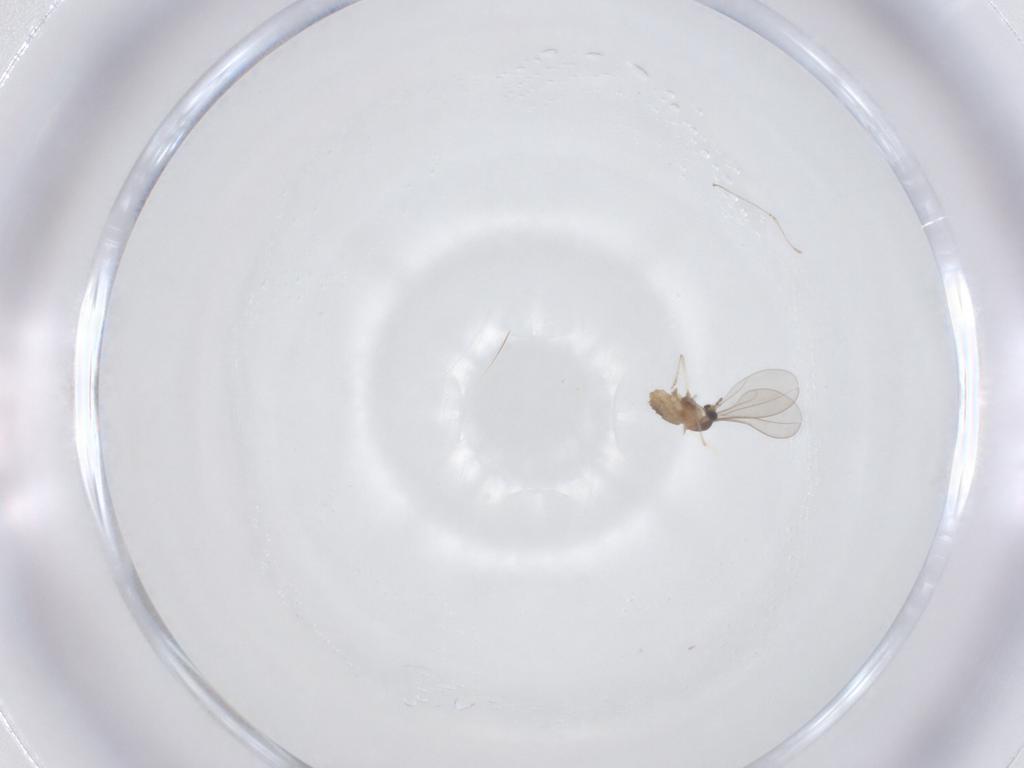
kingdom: Animalia
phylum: Arthropoda
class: Insecta
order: Diptera
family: Cecidomyiidae
